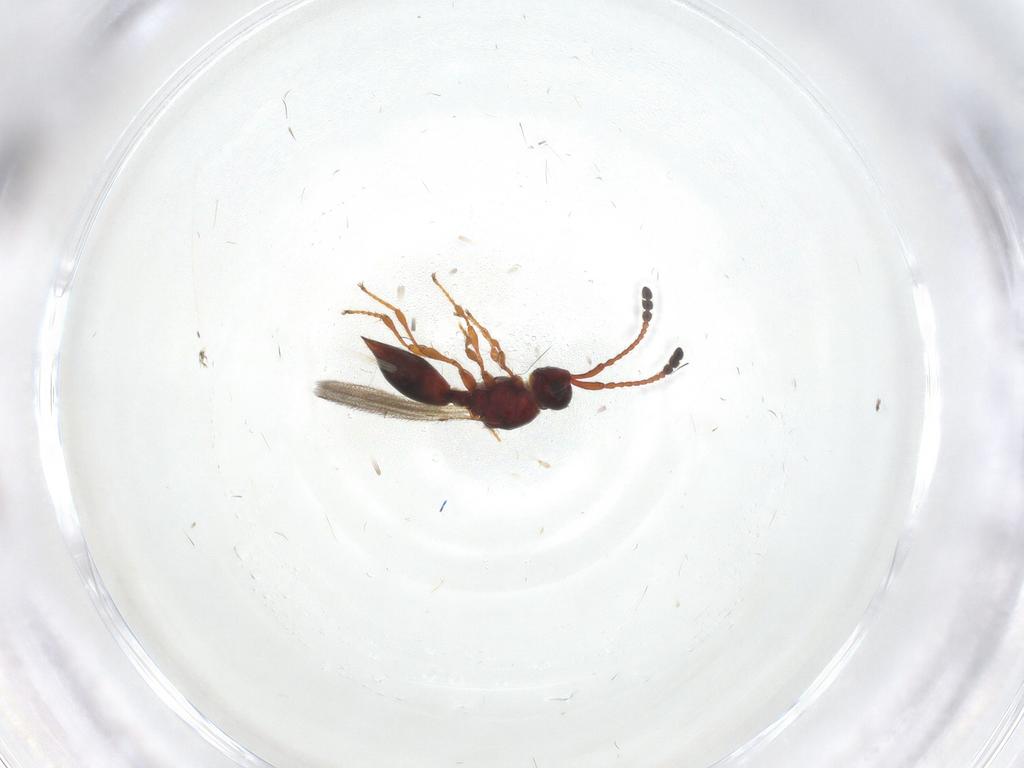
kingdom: Animalia
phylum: Arthropoda
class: Insecta
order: Hymenoptera
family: Diapriidae
